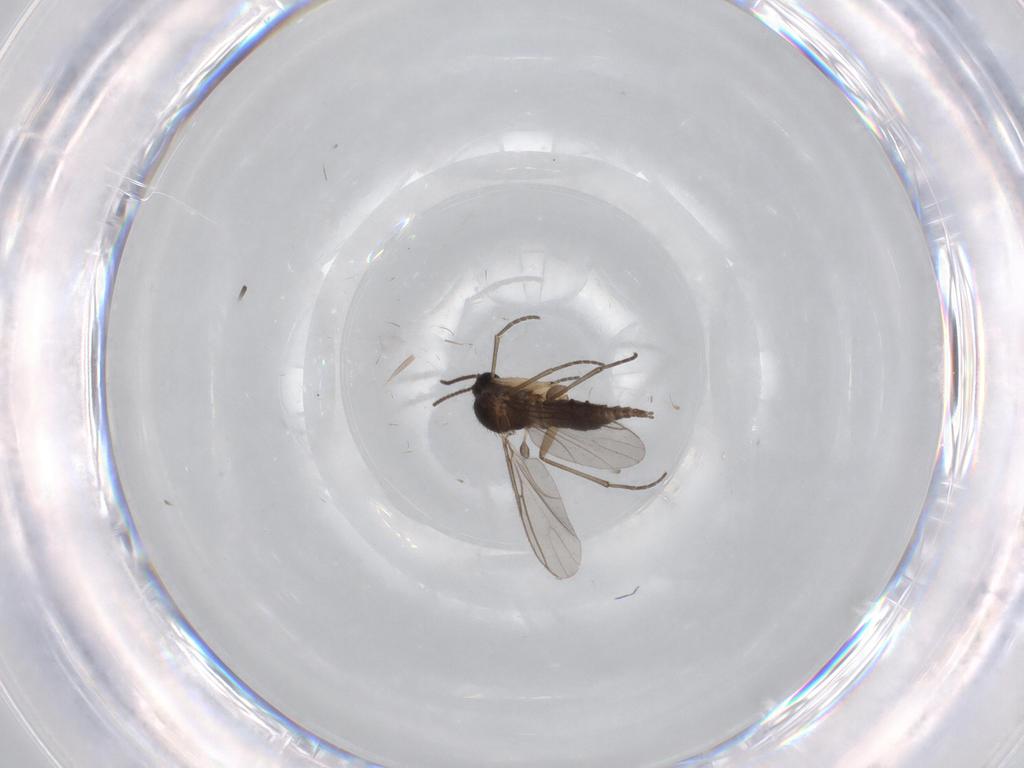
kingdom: Animalia
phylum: Arthropoda
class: Insecta
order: Diptera
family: Sciaridae
